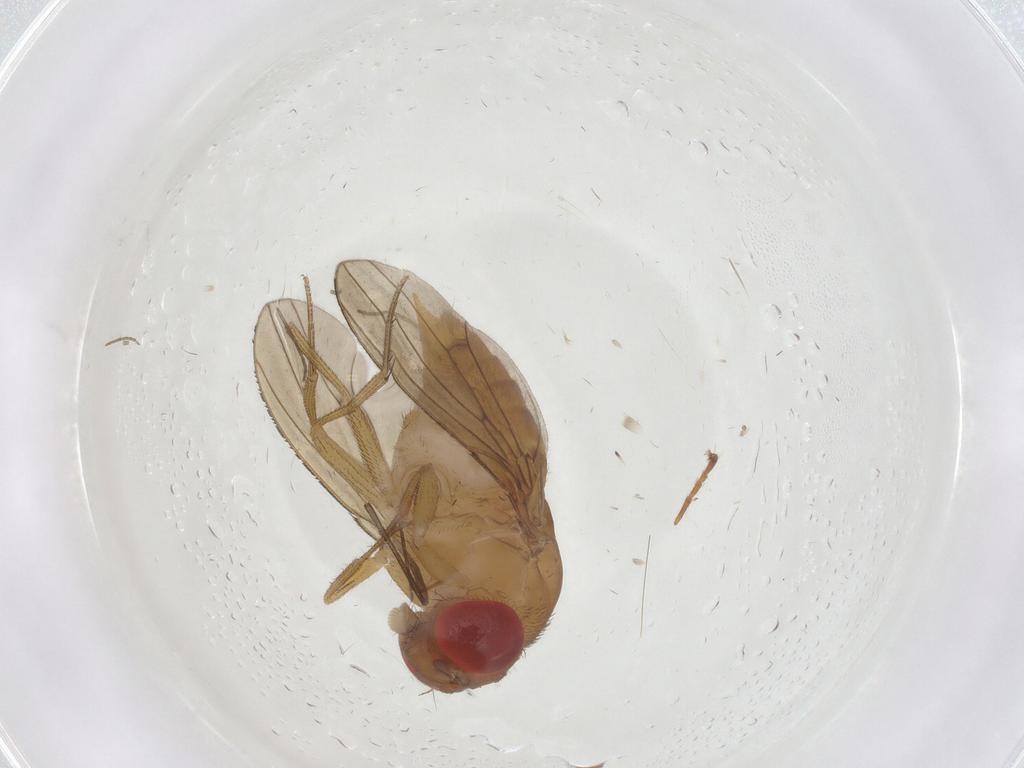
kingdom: Animalia
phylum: Arthropoda
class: Insecta
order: Diptera
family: Drosophilidae
